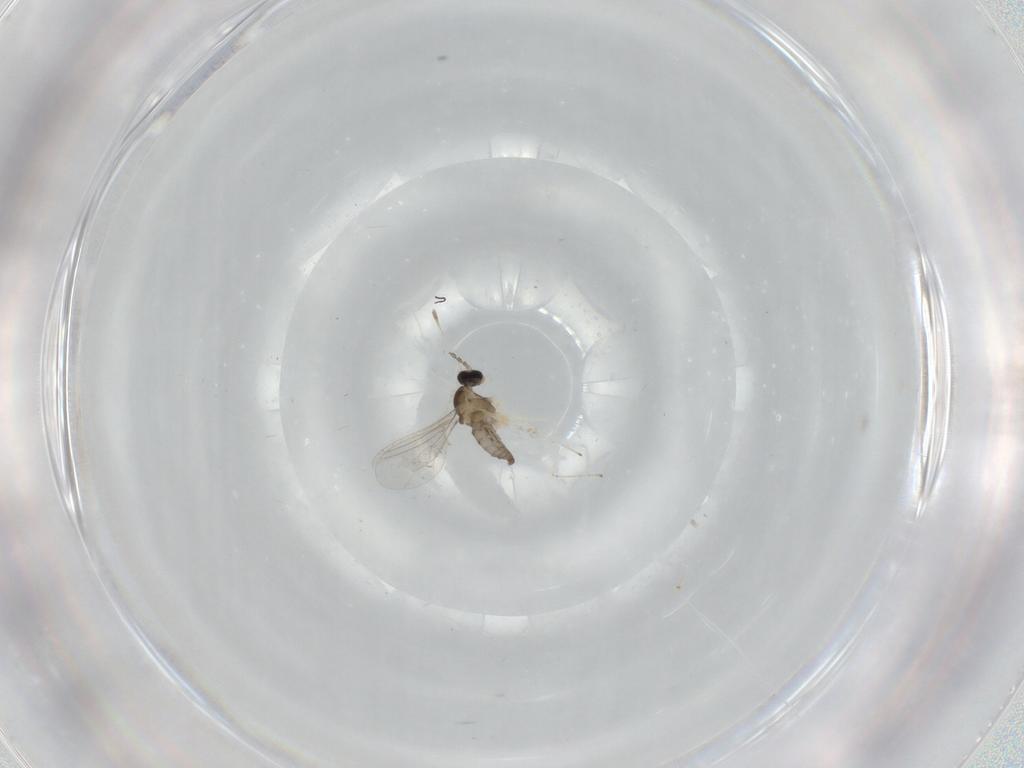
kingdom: Animalia
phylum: Arthropoda
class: Insecta
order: Diptera
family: Cecidomyiidae
